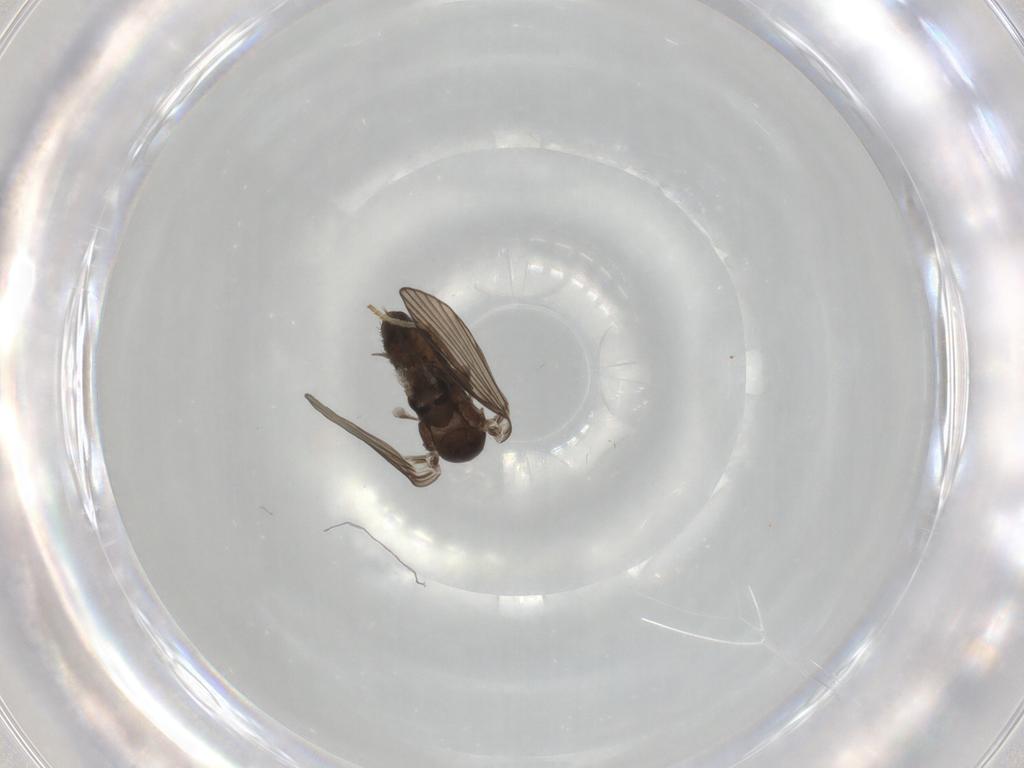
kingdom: Animalia
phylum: Arthropoda
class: Insecta
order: Diptera
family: Psychodidae
